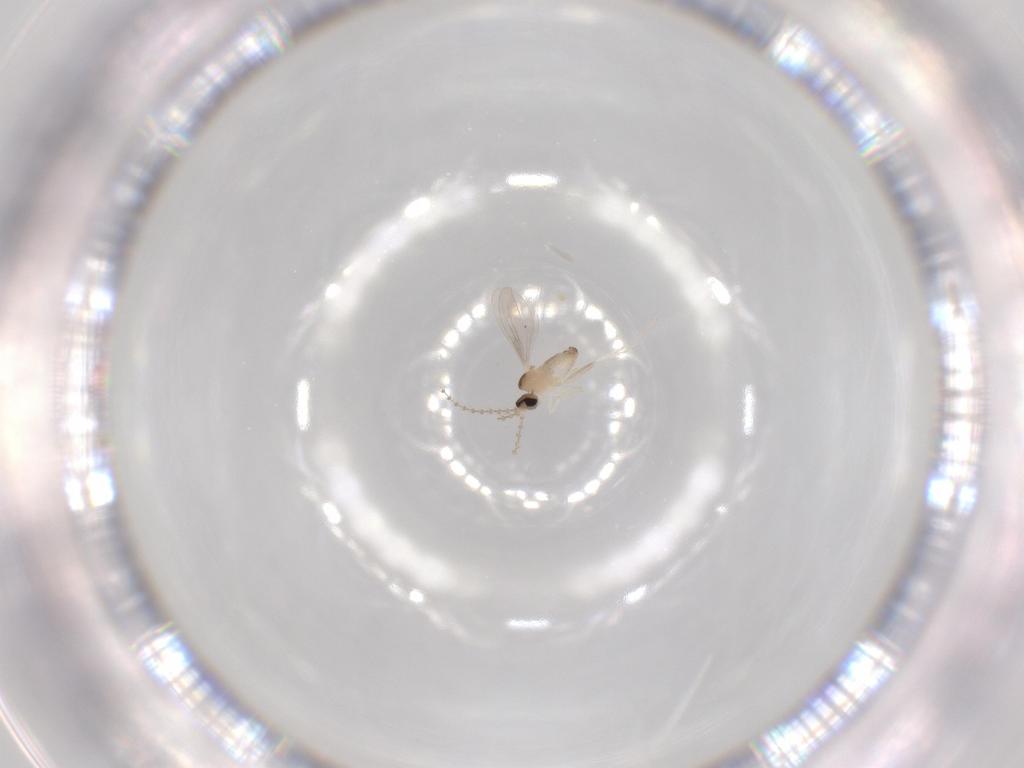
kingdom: Animalia
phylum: Arthropoda
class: Insecta
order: Diptera
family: Cecidomyiidae
